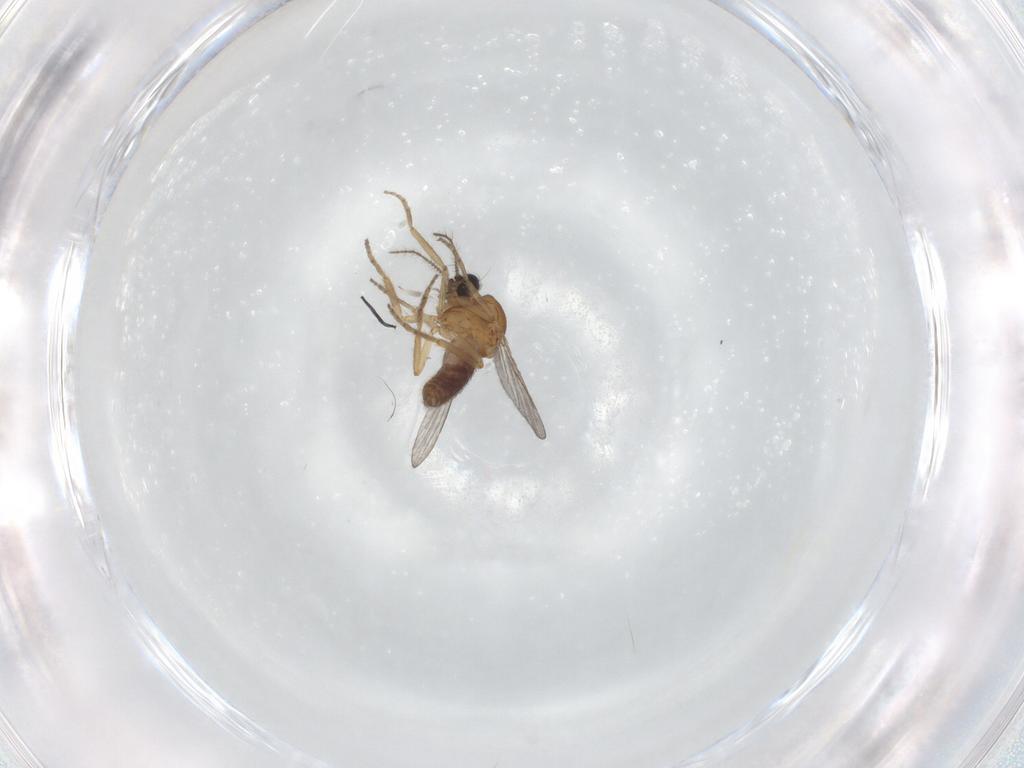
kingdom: Animalia
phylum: Arthropoda
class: Insecta
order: Diptera
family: Ceratopogonidae
